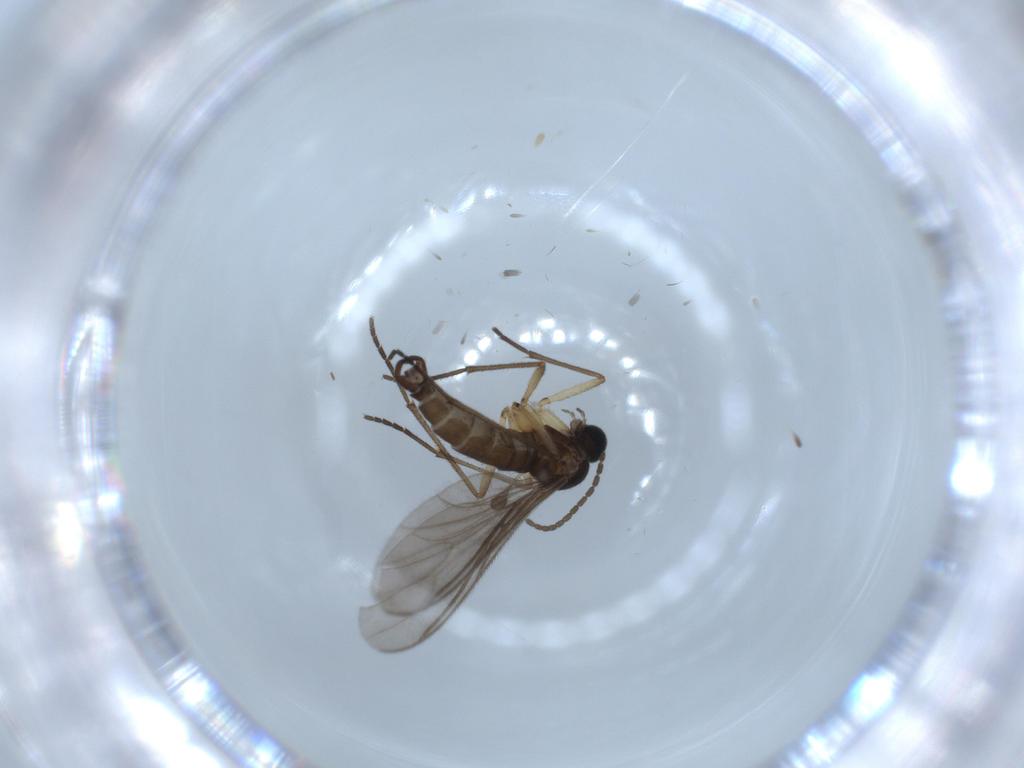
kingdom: Animalia
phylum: Arthropoda
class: Insecta
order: Diptera
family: Sciaridae
